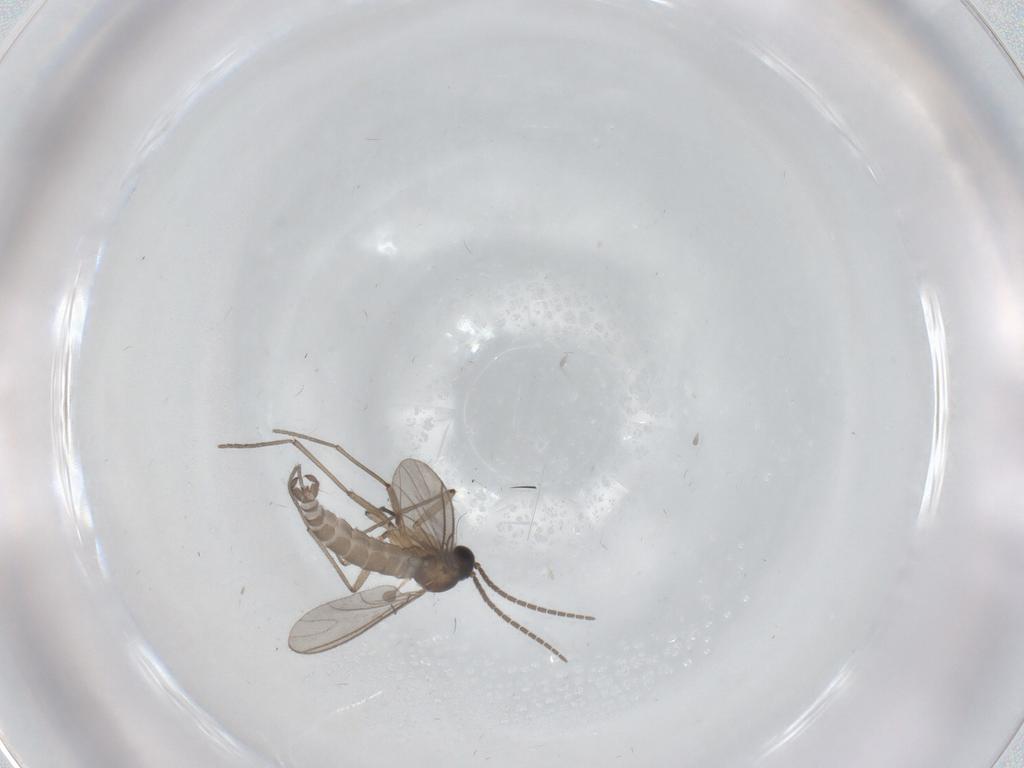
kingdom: Animalia
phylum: Arthropoda
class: Insecta
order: Diptera
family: Sciaridae
